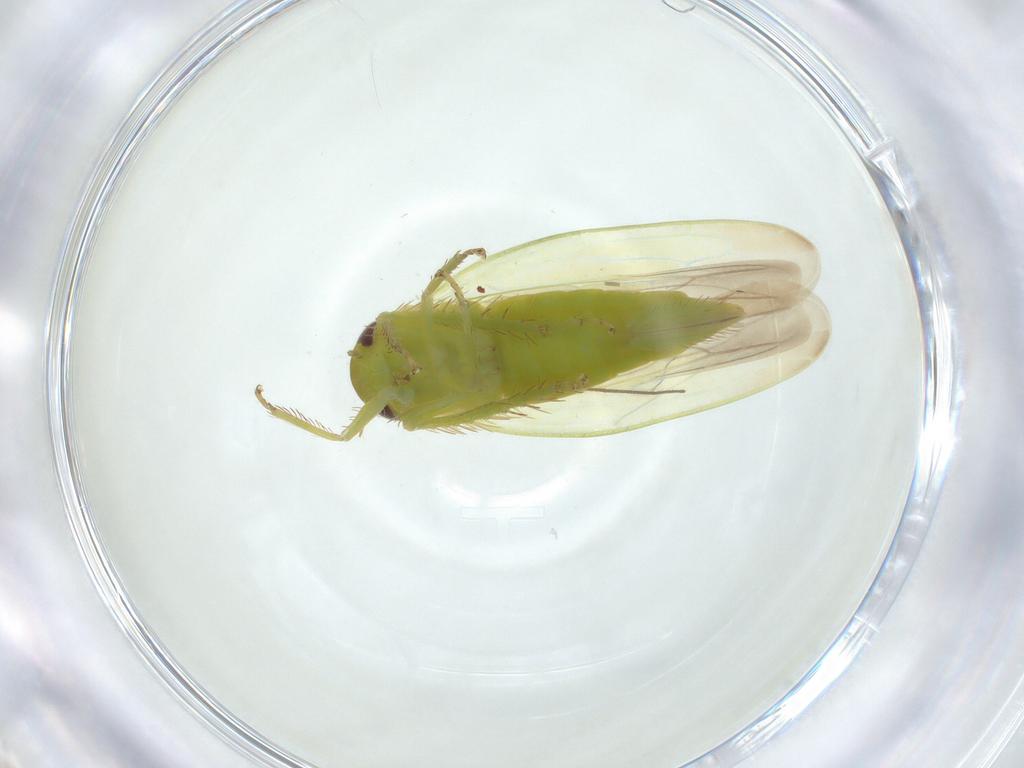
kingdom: Animalia
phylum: Arthropoda
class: Insecta
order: Hemiptera
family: Cicadellidae
